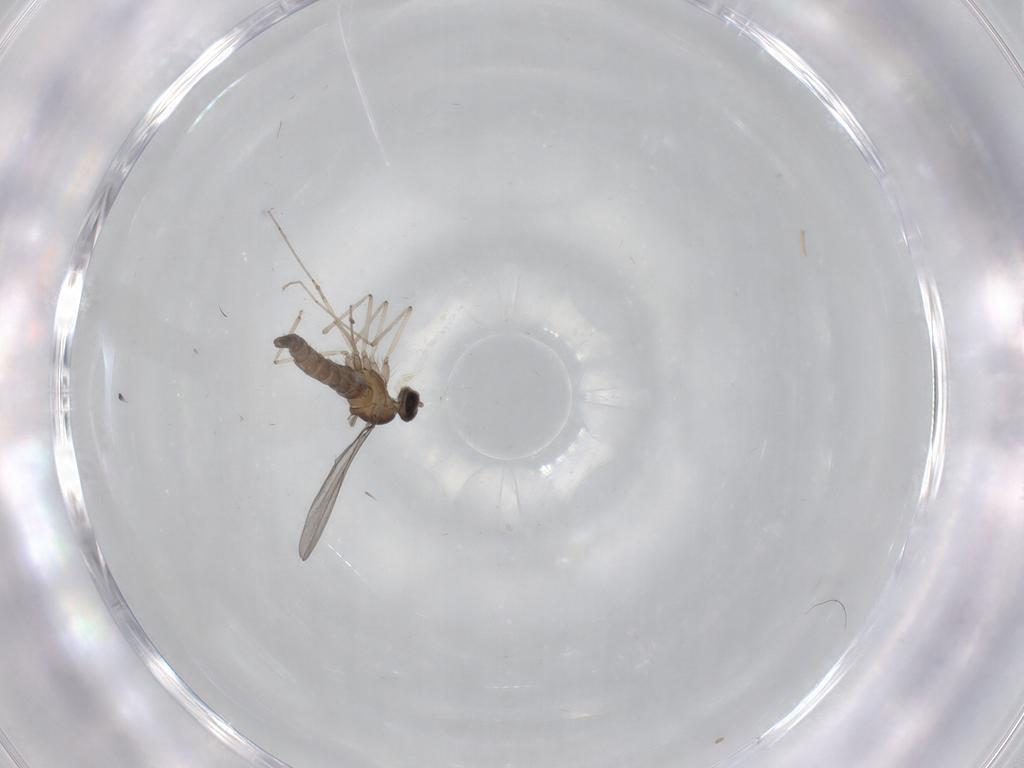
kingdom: Animalia
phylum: Arthropoda
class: Insecta
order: Diptera
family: Cecidomyiidae
